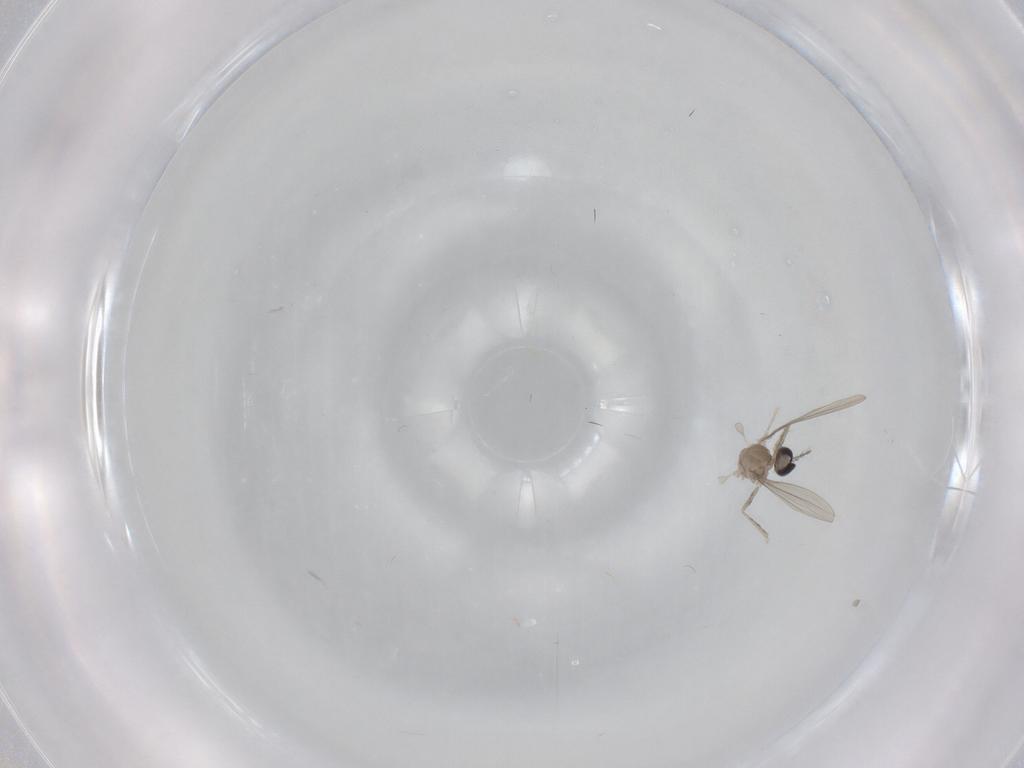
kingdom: Animalia
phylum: Arthropoda
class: Insecta
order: Diptera
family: Cecidomyiidae
